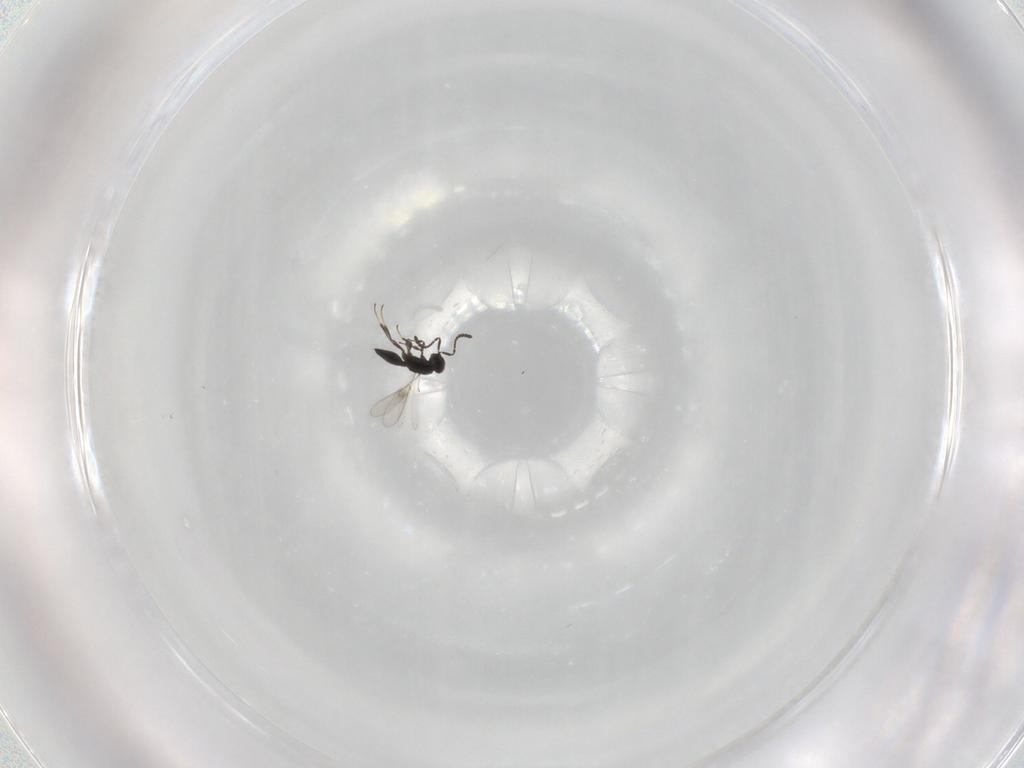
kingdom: Animalia
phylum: Arthropoda
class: Insecta
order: Hymenoptera
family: Scelionidae
